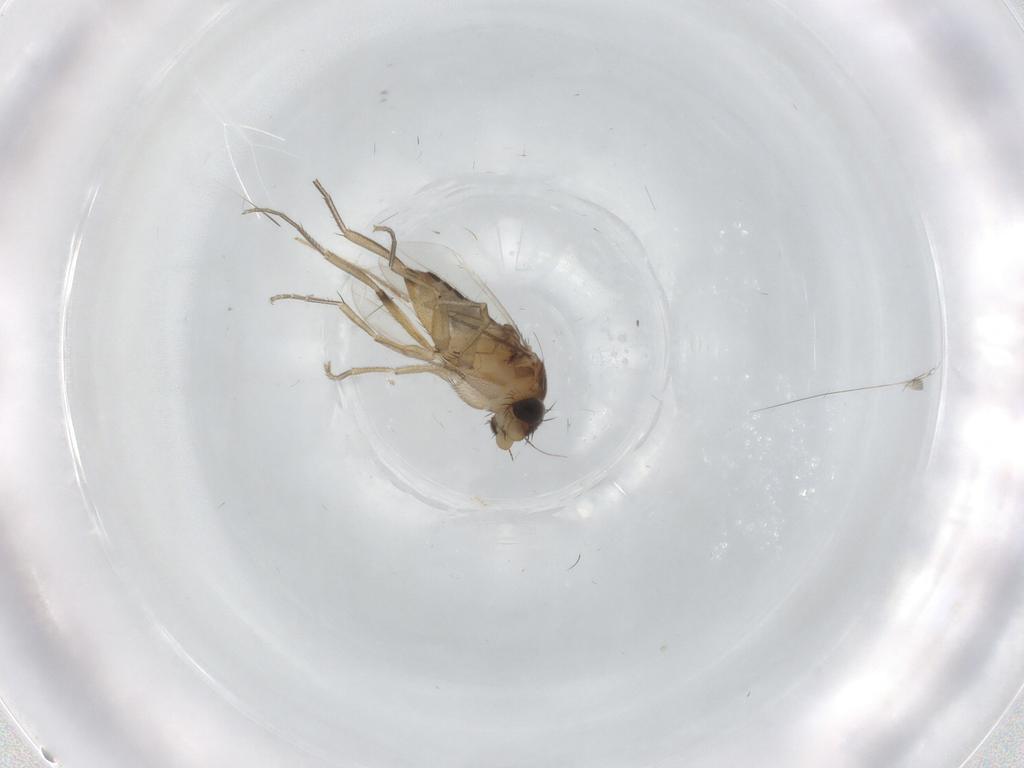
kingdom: Animalia
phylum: Arthropoda
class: Insecta
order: Diptera
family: Phoridae
